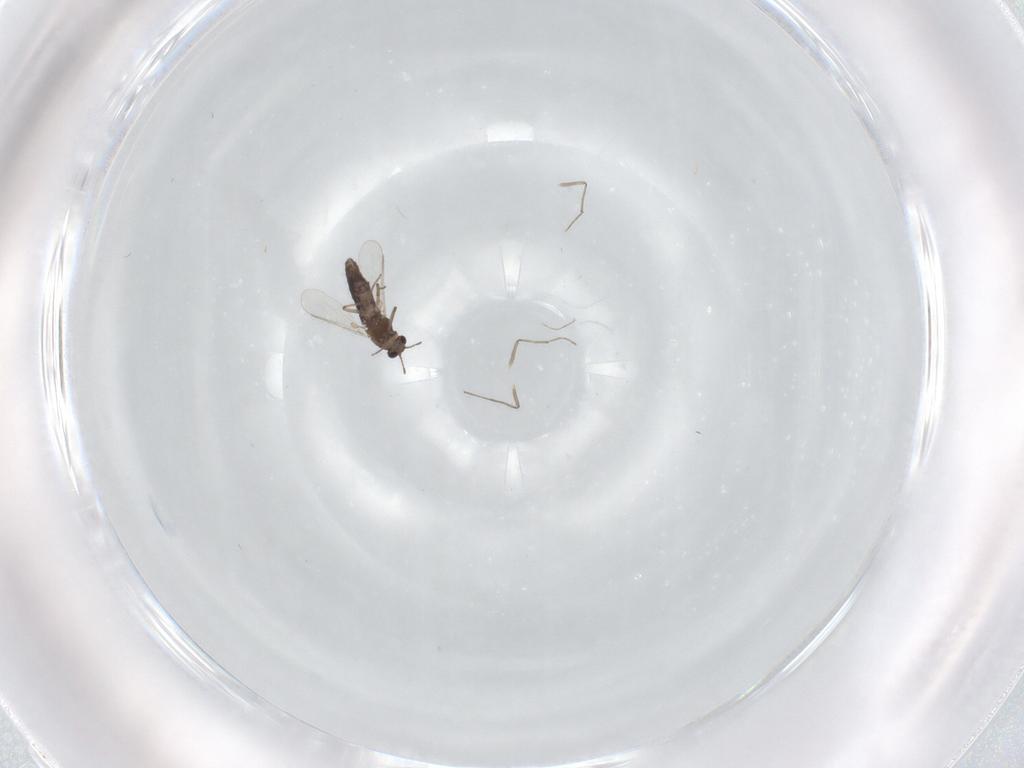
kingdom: Animalia
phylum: Arthropoda
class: Insecta
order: Diptera
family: Chironomidae
